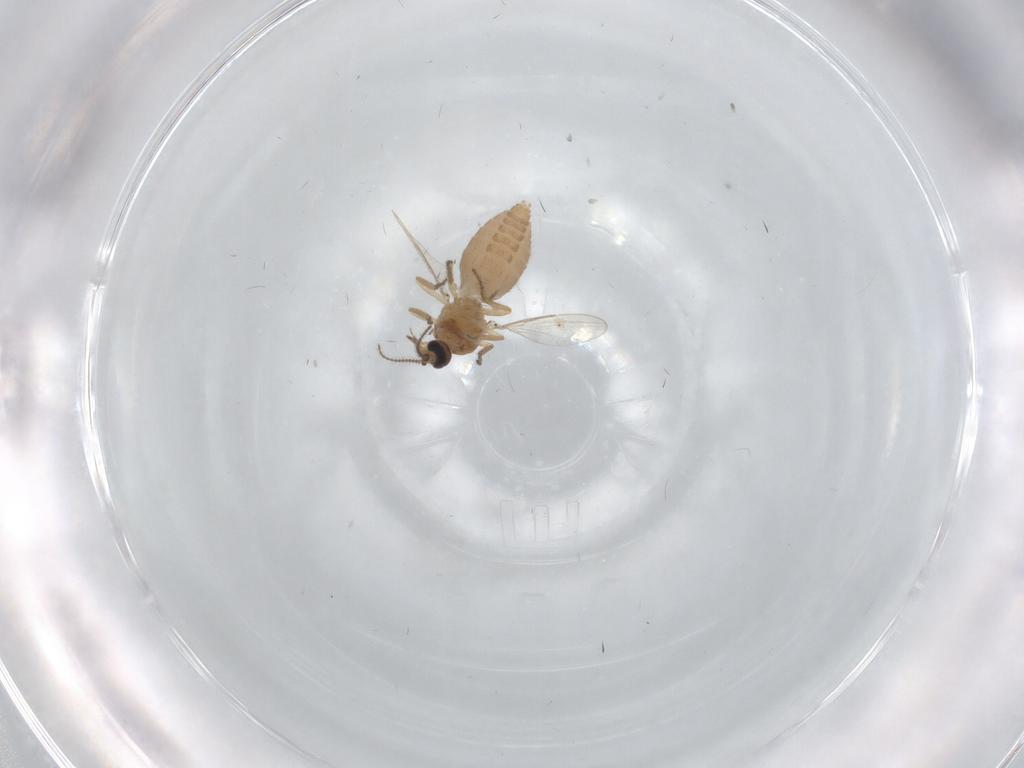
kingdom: Animalia
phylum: Arthropoda
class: Insecta
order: Diptera
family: Ceratopogonidae
